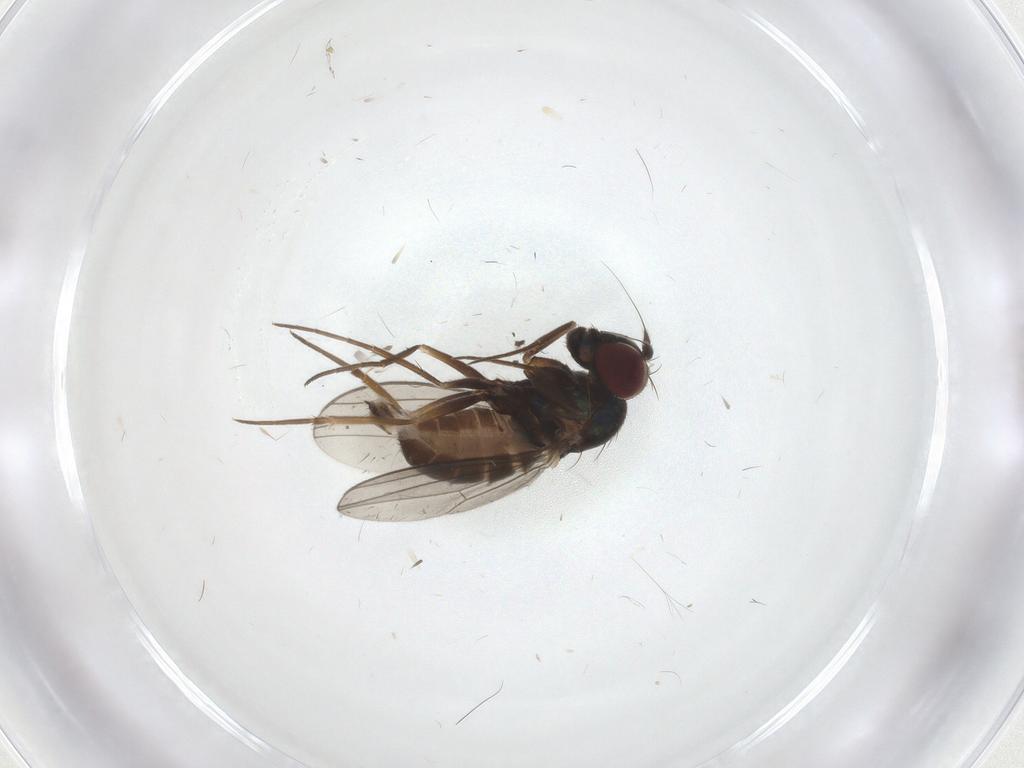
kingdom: Animalia
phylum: Arthropoda
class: Insecta
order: Diptera
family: Dolichopodidae
